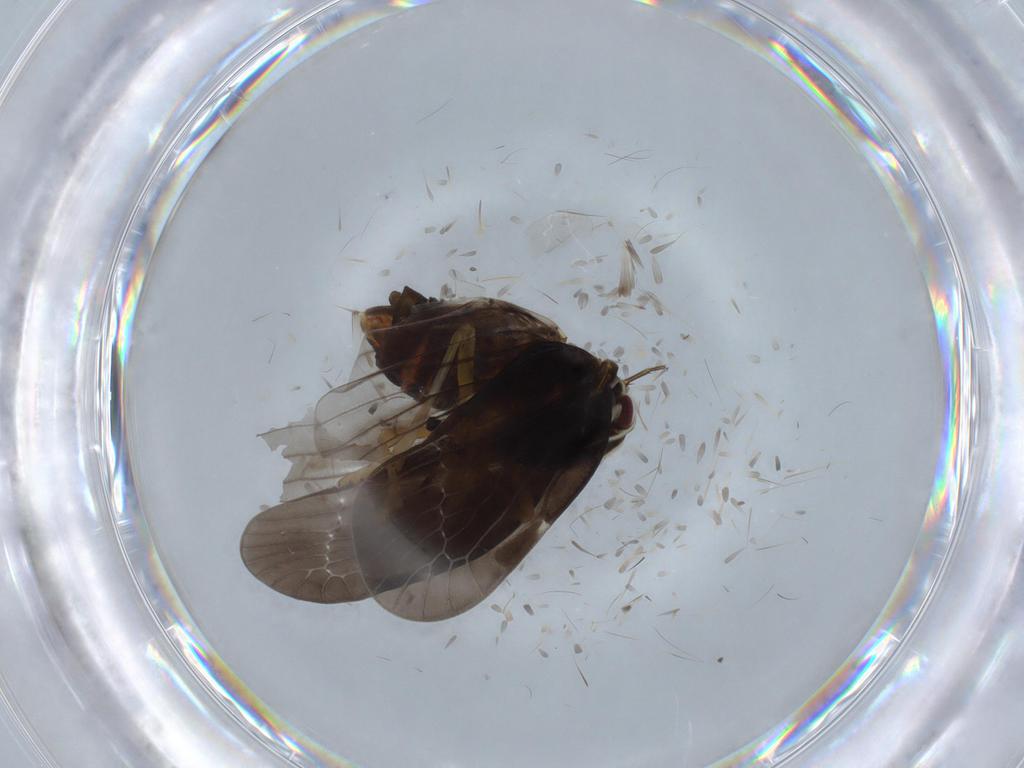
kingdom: Animalia
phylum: Arthropoda
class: Insecta
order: Hemiptera
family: Derbidae
